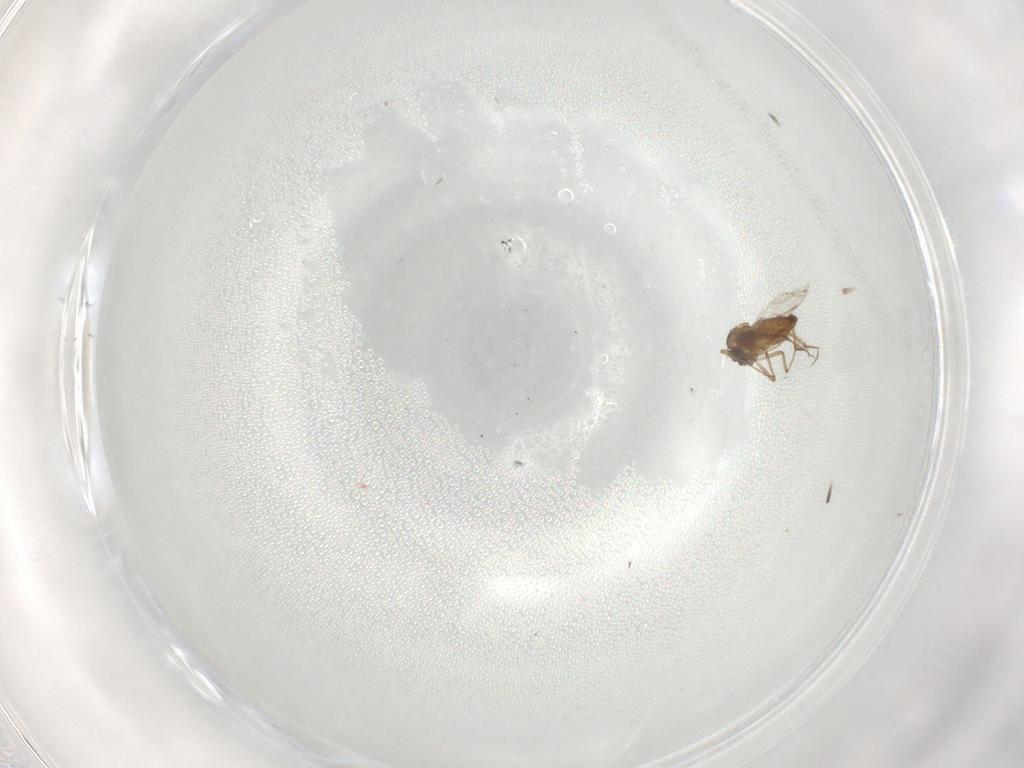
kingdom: Animalia
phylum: Arthropoda
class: Insecta
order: Diptera
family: Ceratopogonidae
